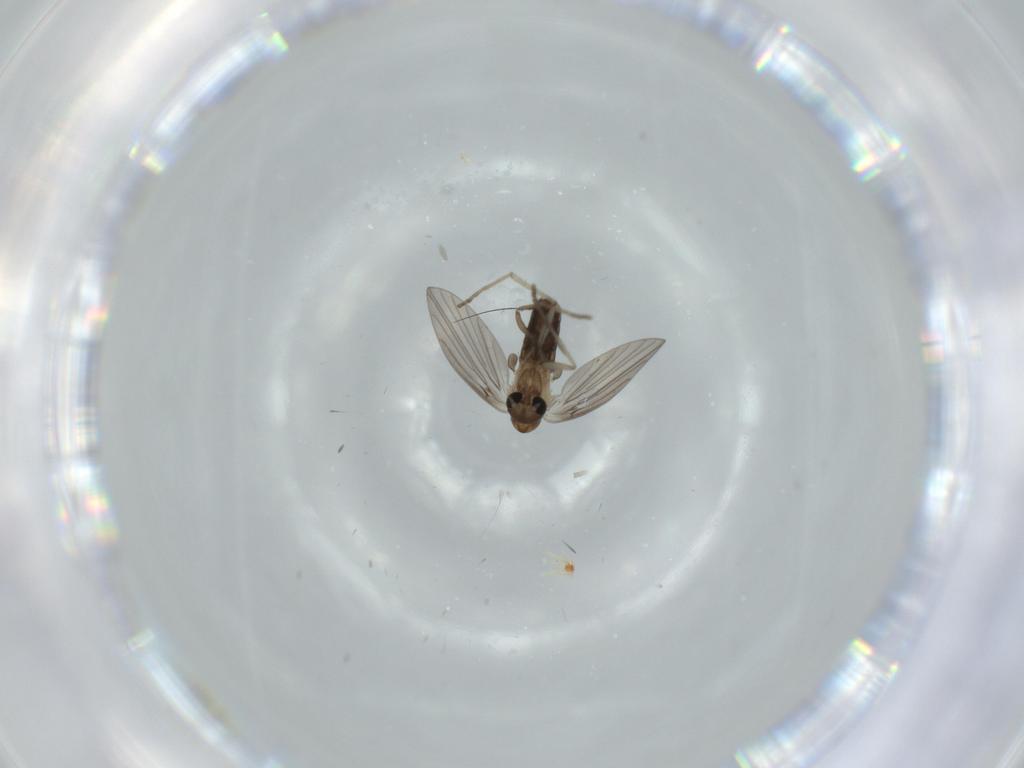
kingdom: Animalia
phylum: Arthropoda
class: Insecta
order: Diptera
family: Psychodidae
